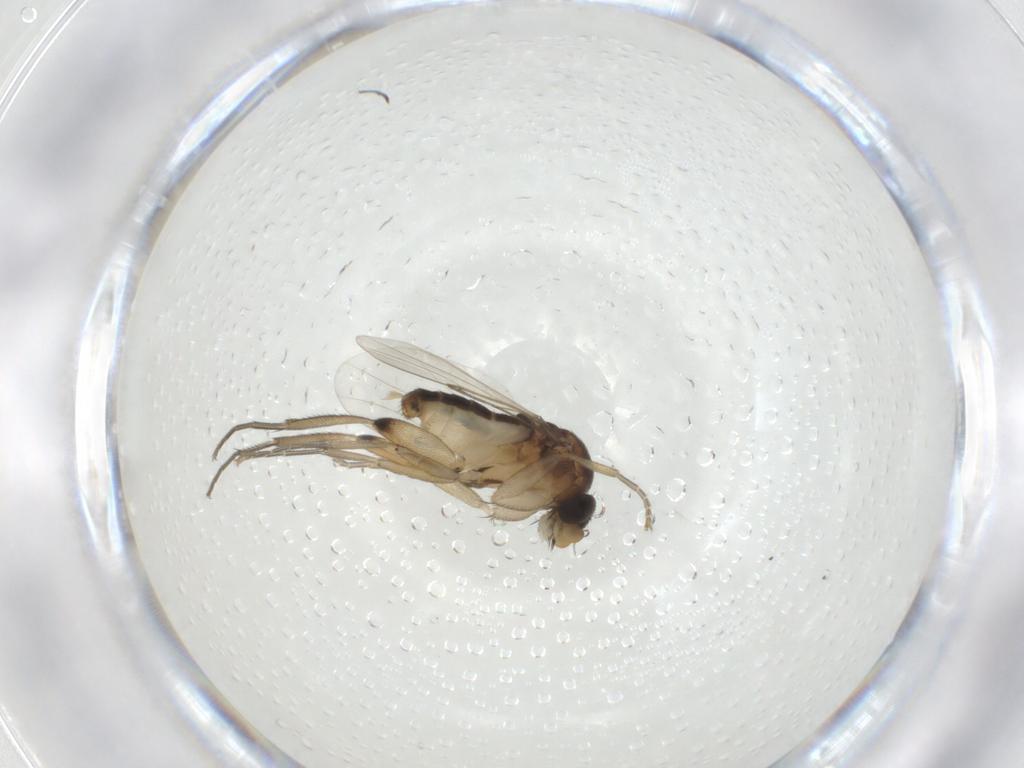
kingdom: Animalia
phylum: Arthropoda
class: Insecta
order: Diptera
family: Phoridae
